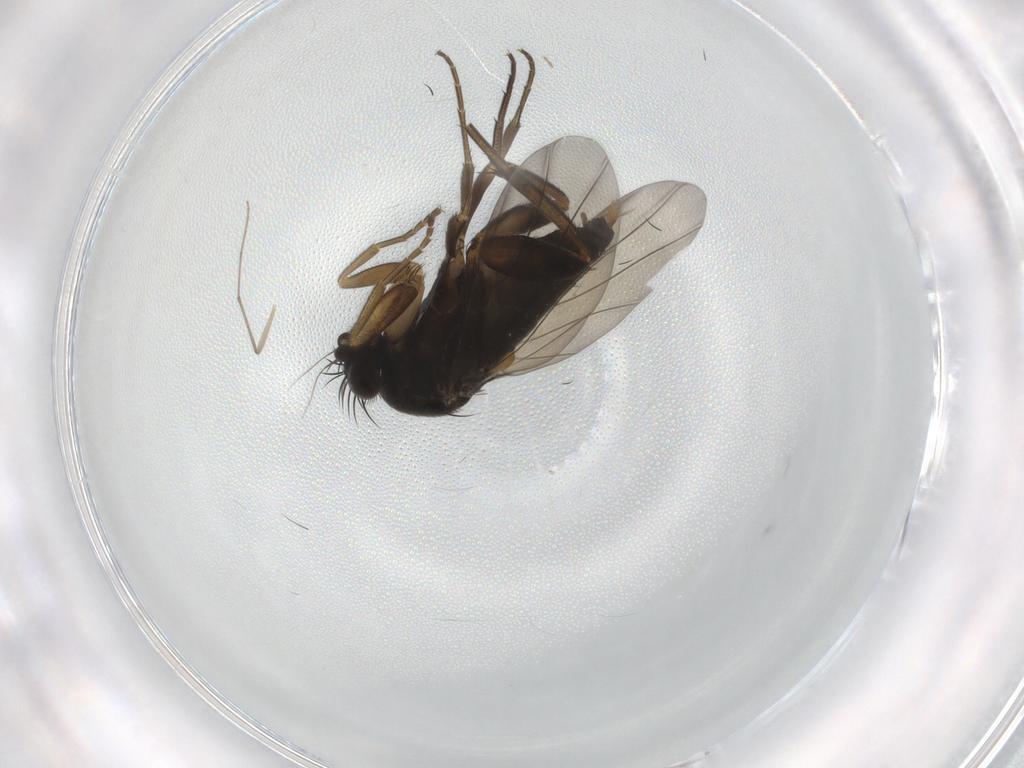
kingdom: Animalia
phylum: Arthropoda
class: Insecta
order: Diptera
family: Phoridae
